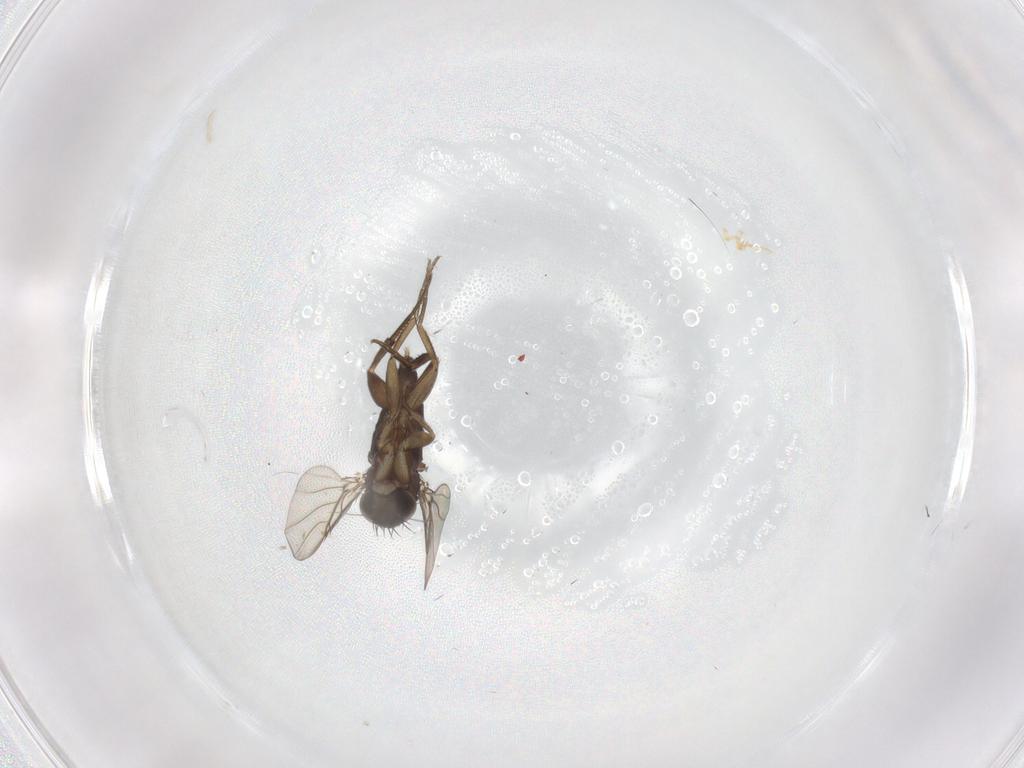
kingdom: Animalia
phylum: Arthropoda
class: Insecta
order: Diptera
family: Phoridae
